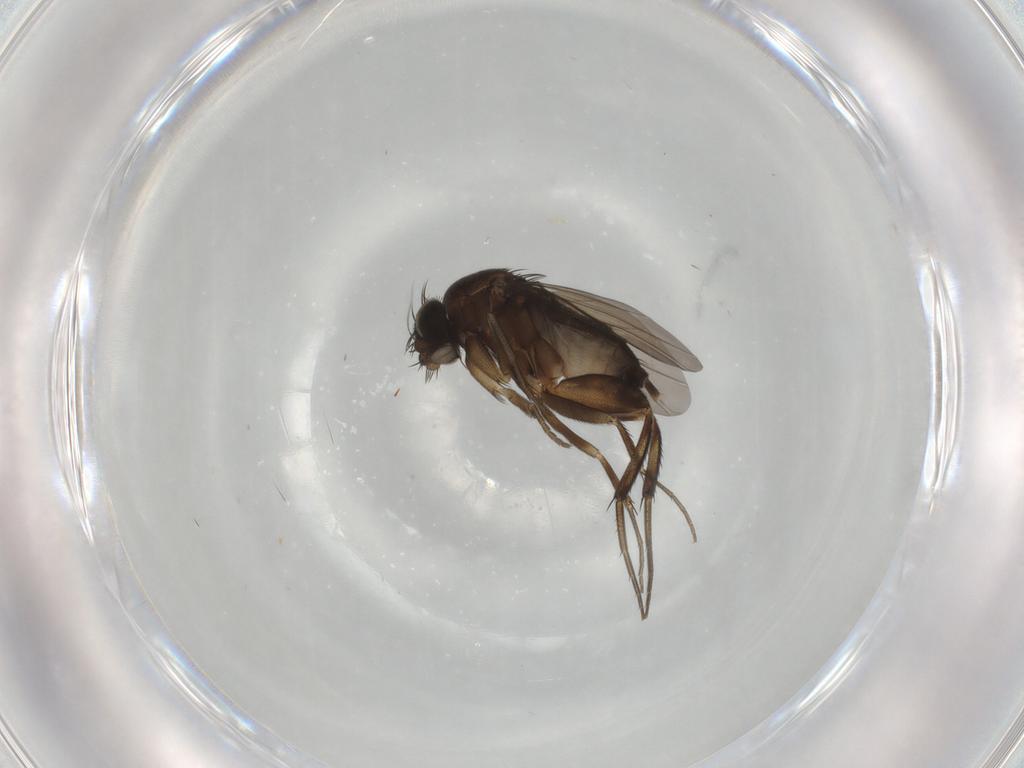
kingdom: Animalia
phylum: Arthropoda
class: Insecta
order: Diptera
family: Phoridae
